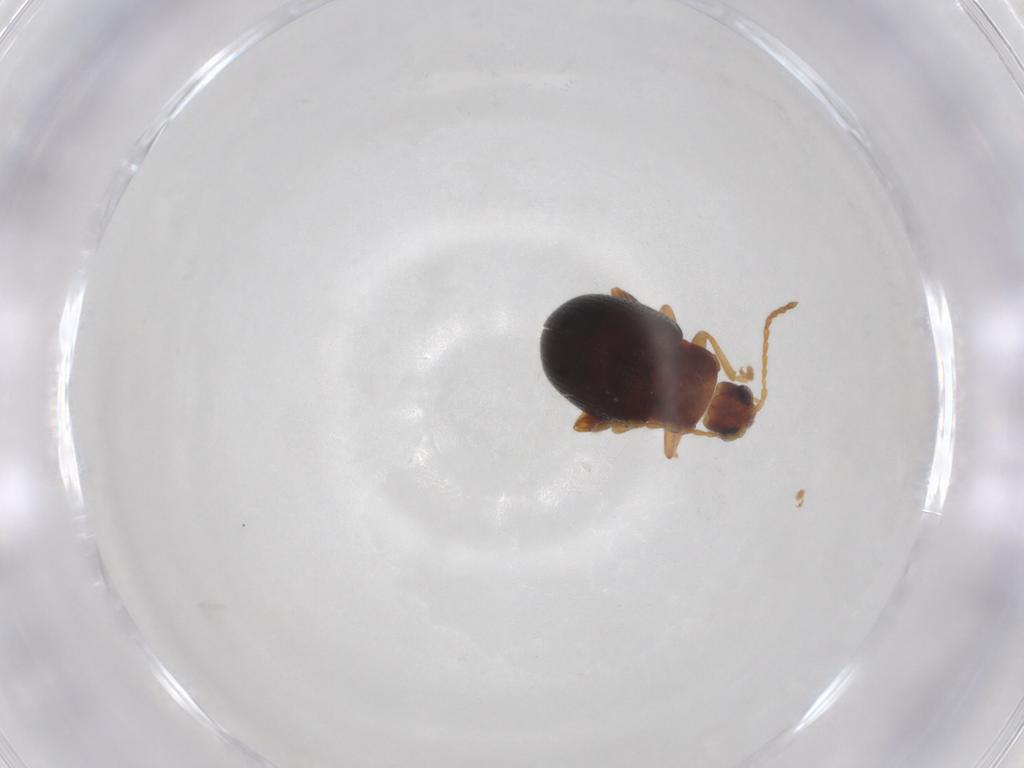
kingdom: Animalia
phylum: Arthropoda
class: Insecta
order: Coleoptera
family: Chrysomelidae
